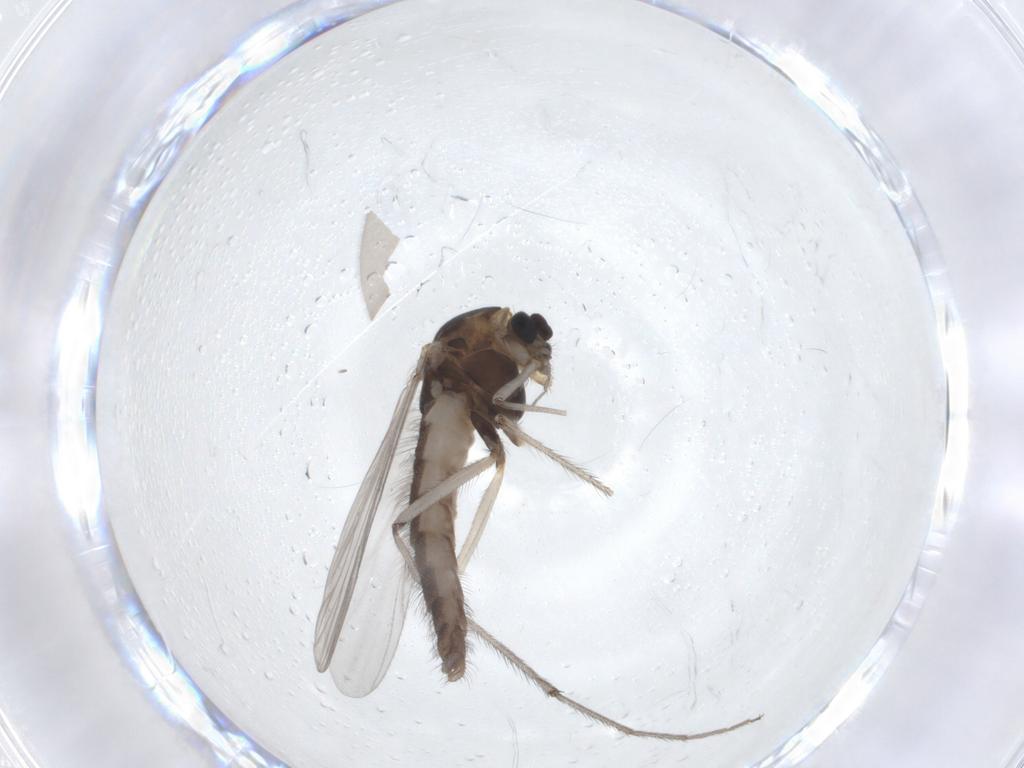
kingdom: Animalia
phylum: Arthropoda
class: Insecta
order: Diptera
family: Chironomidae
